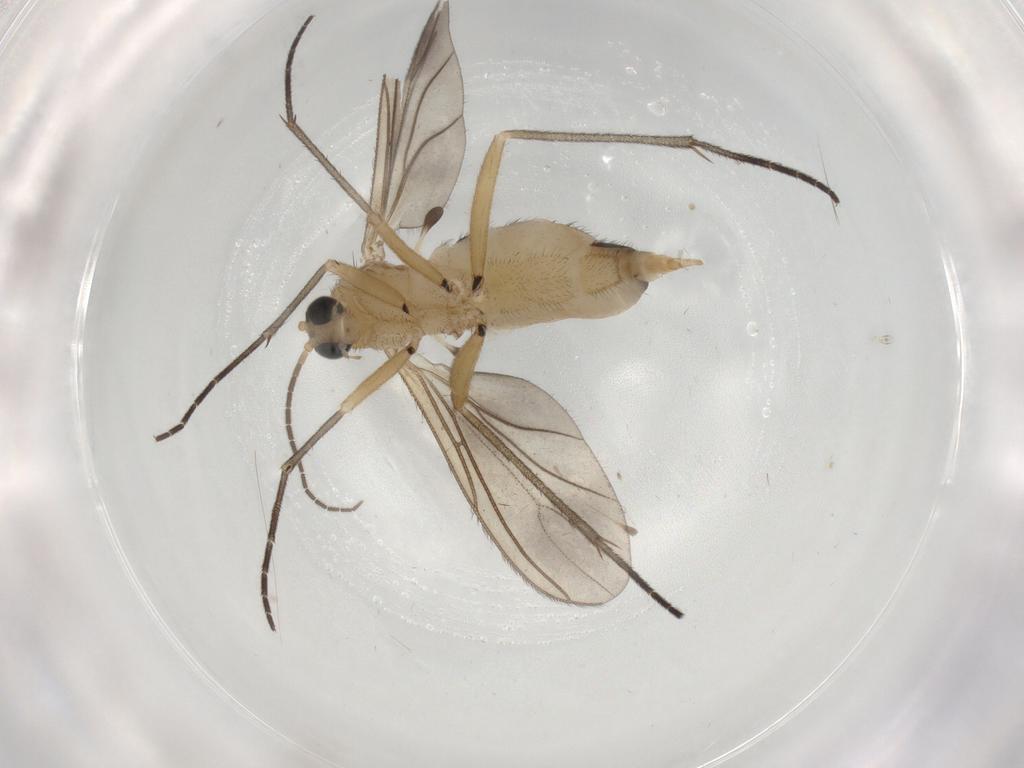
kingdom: Animalia
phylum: Arthropoda
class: Insecta
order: Diptera
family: Sciaridae
